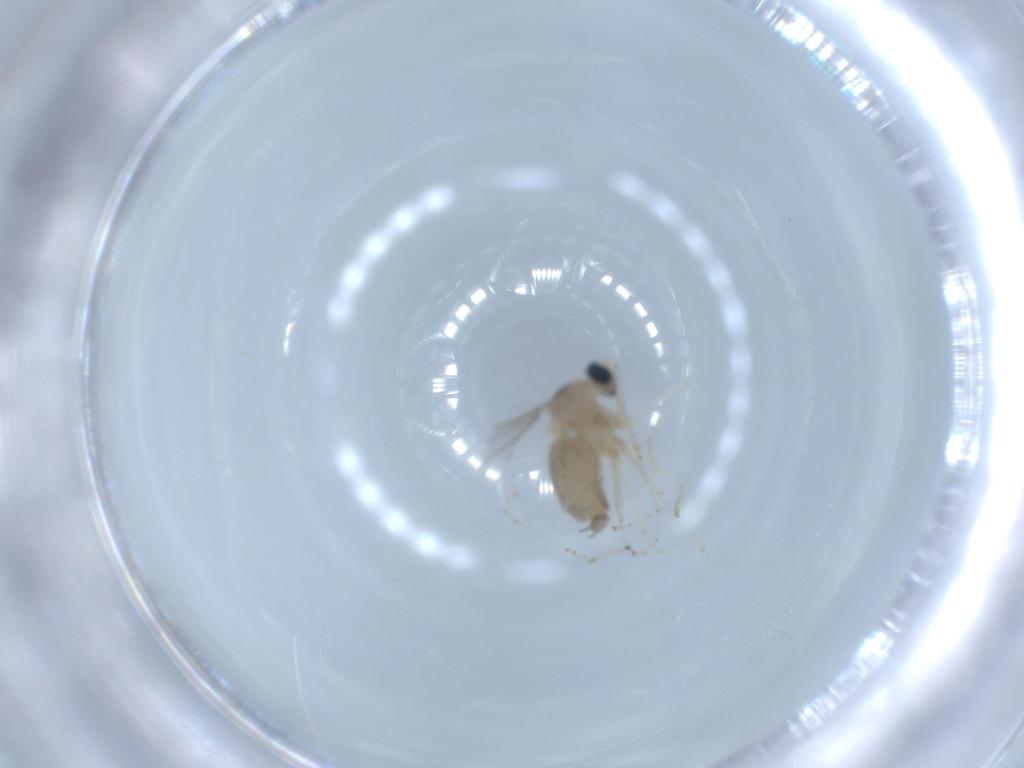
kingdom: Animalia
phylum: Arthropoda
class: Insecta
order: Diptera
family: Cecidomyiidae
